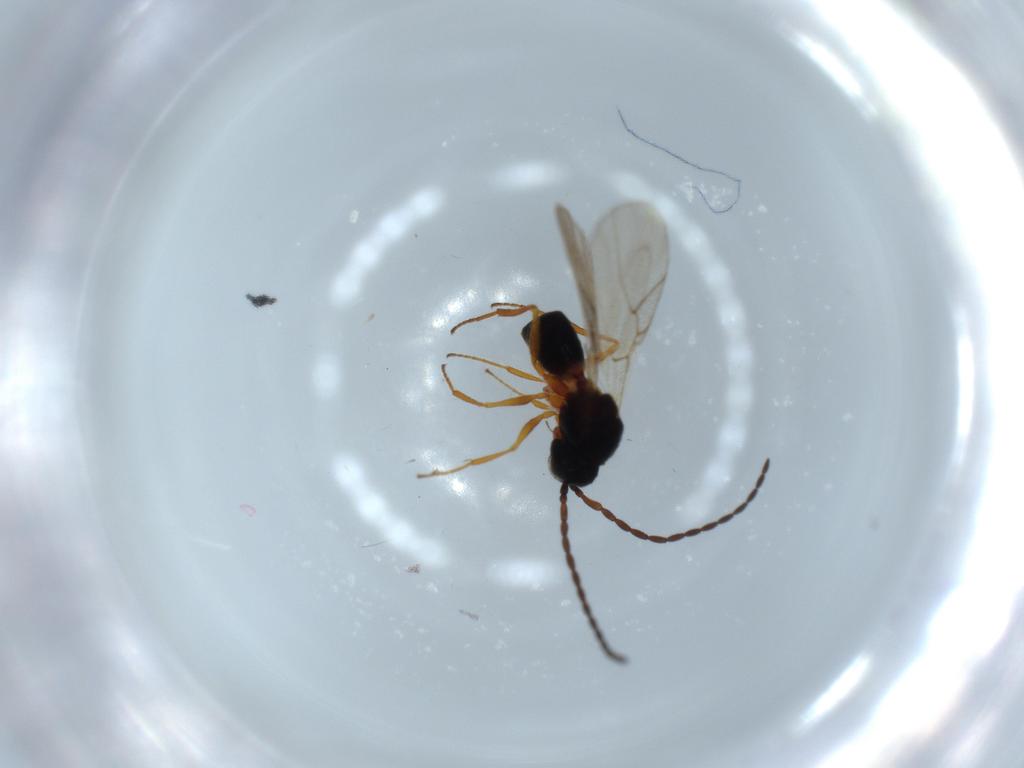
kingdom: Animalia
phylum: Arthropoda
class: Insecta
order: Hymenoptera
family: Figitidae
